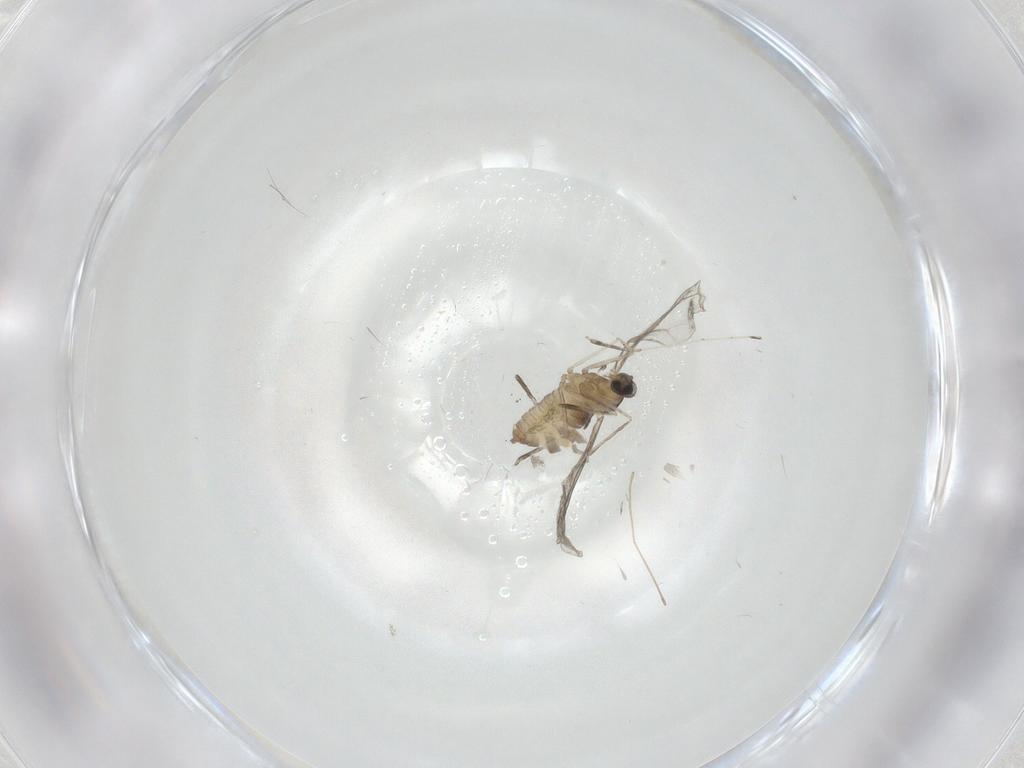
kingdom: Animalia
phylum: Arthropoda
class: Insecta
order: Diptera
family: Cecidomyiidae
